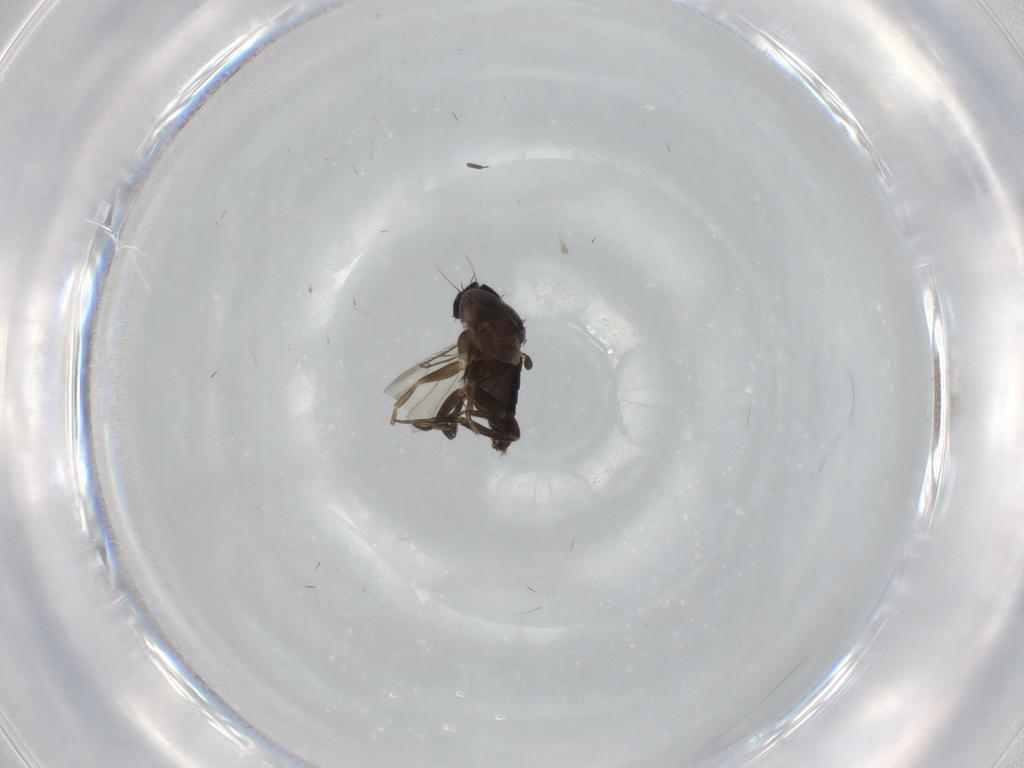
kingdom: Animalia
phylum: Arthropoda
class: Insecta
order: Diptera
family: Phoridae
